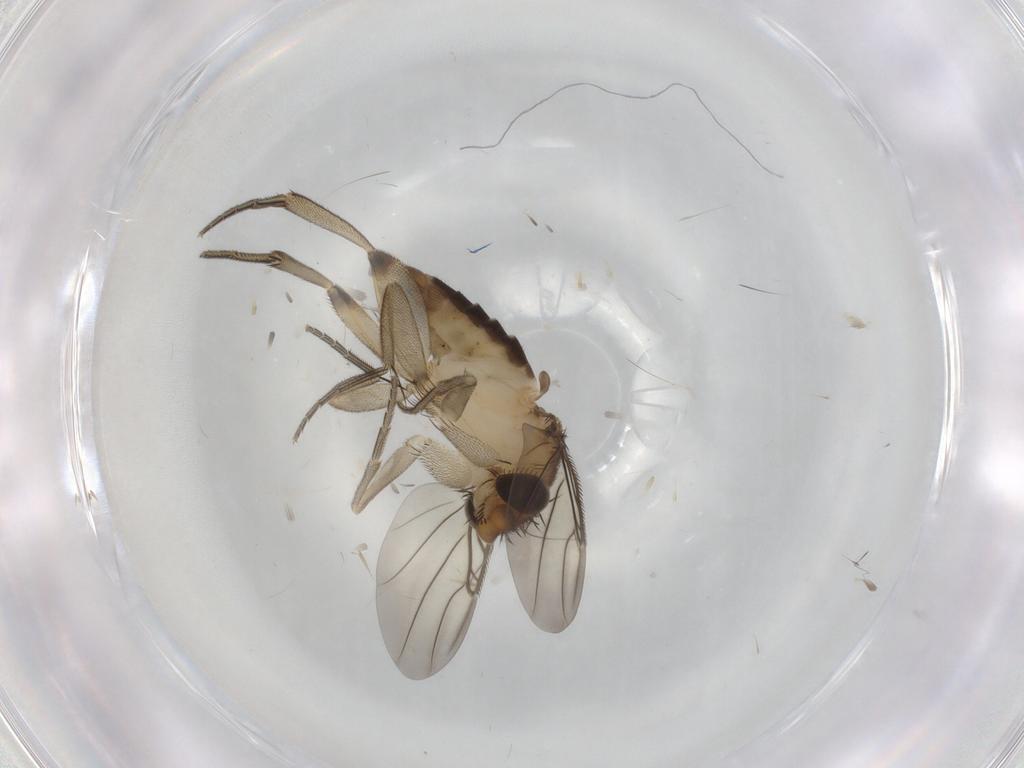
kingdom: Animalia
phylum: Arthropoda
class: Insecta
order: Diptera
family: Phoridae
